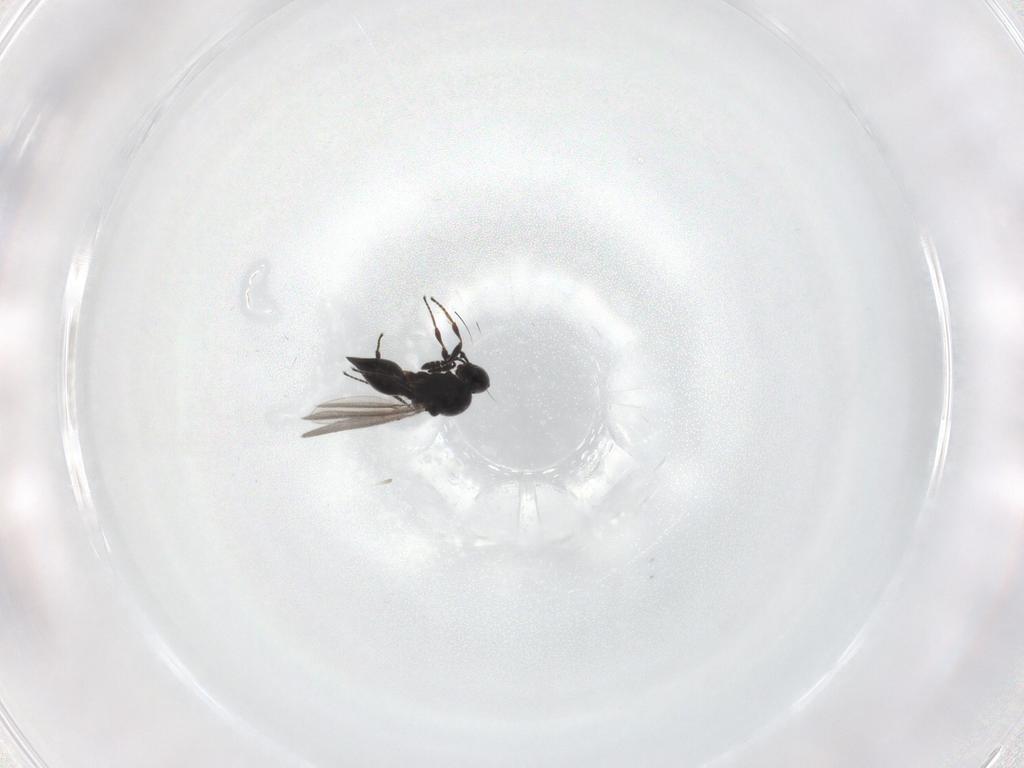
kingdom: Animalia
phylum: Arthropoda
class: Insecta
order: Hymenoptera
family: Platygastridae
